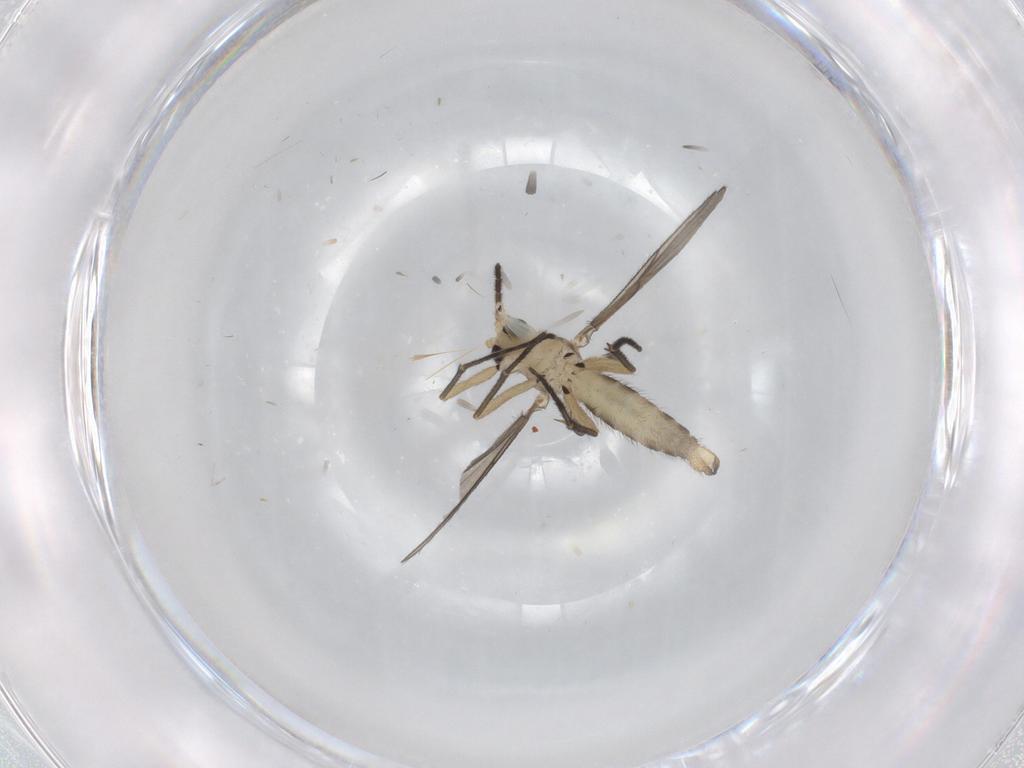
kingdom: Animalia
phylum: Arthropoda
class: Insecta
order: Diptera
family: Sciaridae
